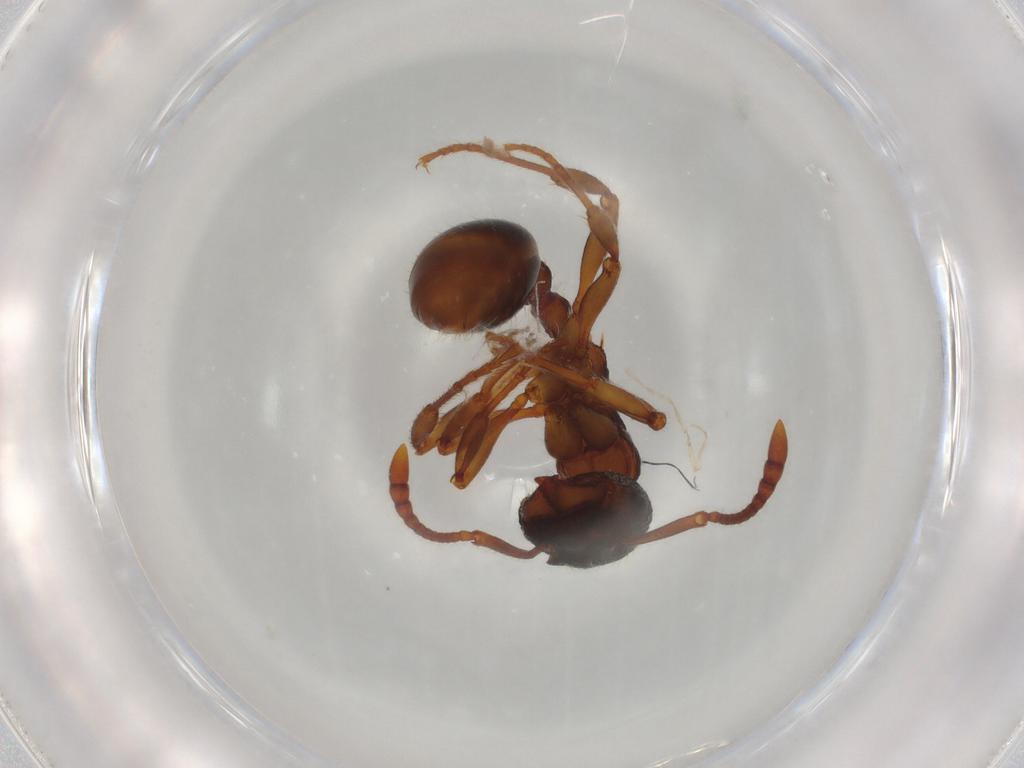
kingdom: Animalia
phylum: Arthropoda
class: Insecta
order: Hymenoptera
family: Formicidae
